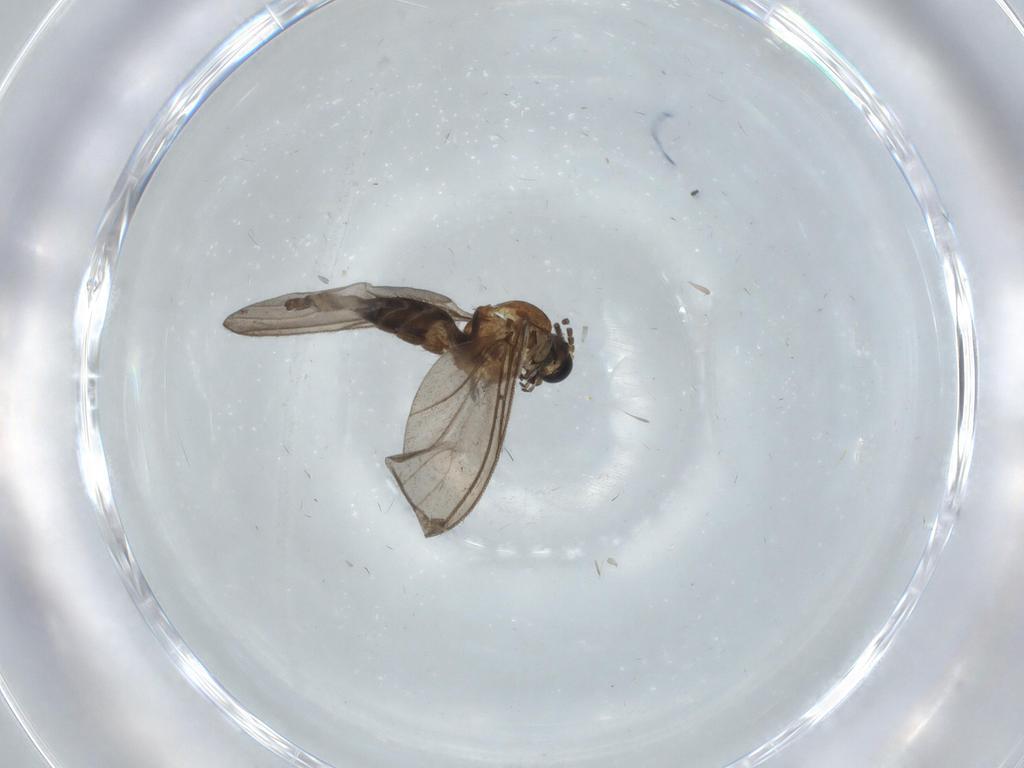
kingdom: Animalia
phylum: Arthropoda
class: Insecta
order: Diptera
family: Chironomidae
